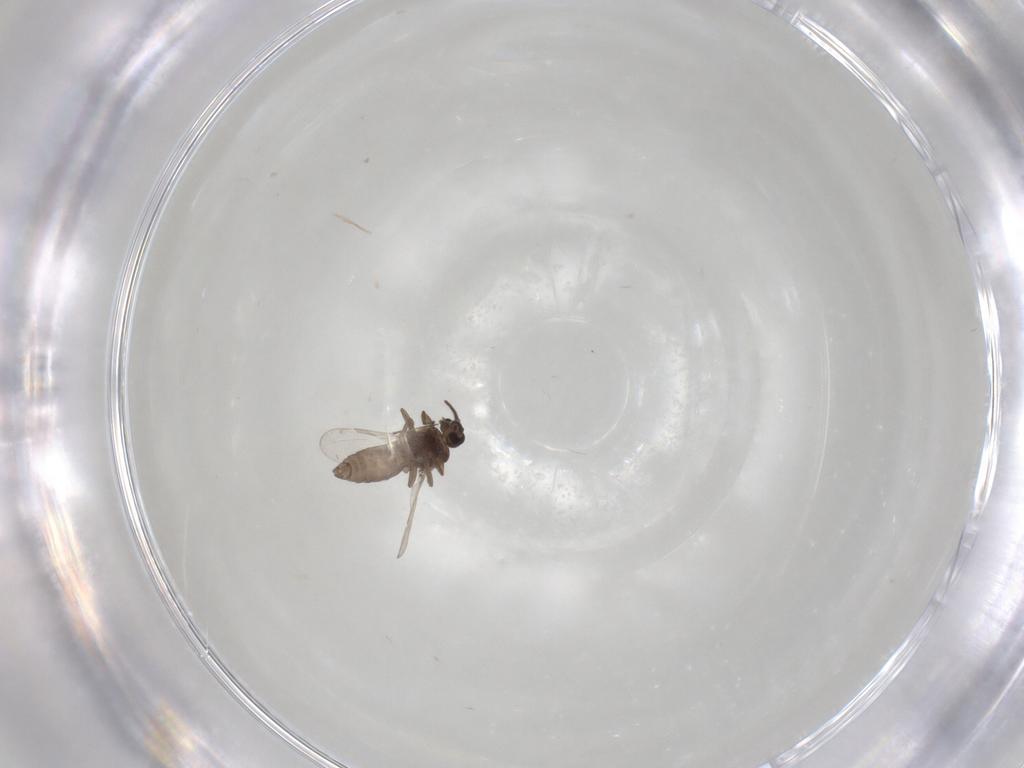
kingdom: Animalia
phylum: Arthropoda
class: Insecta
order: Diptera
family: Ceratopogonidae
